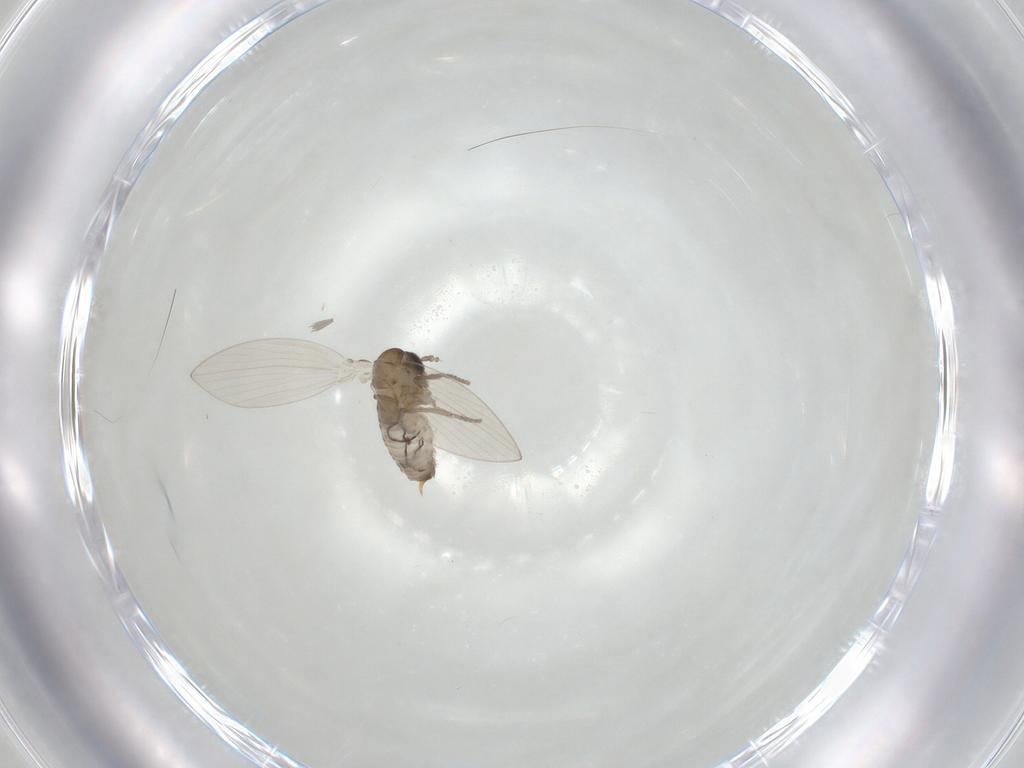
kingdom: Animalia
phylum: Arthropoda
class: Insecta
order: Diptera
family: Psychodidae
